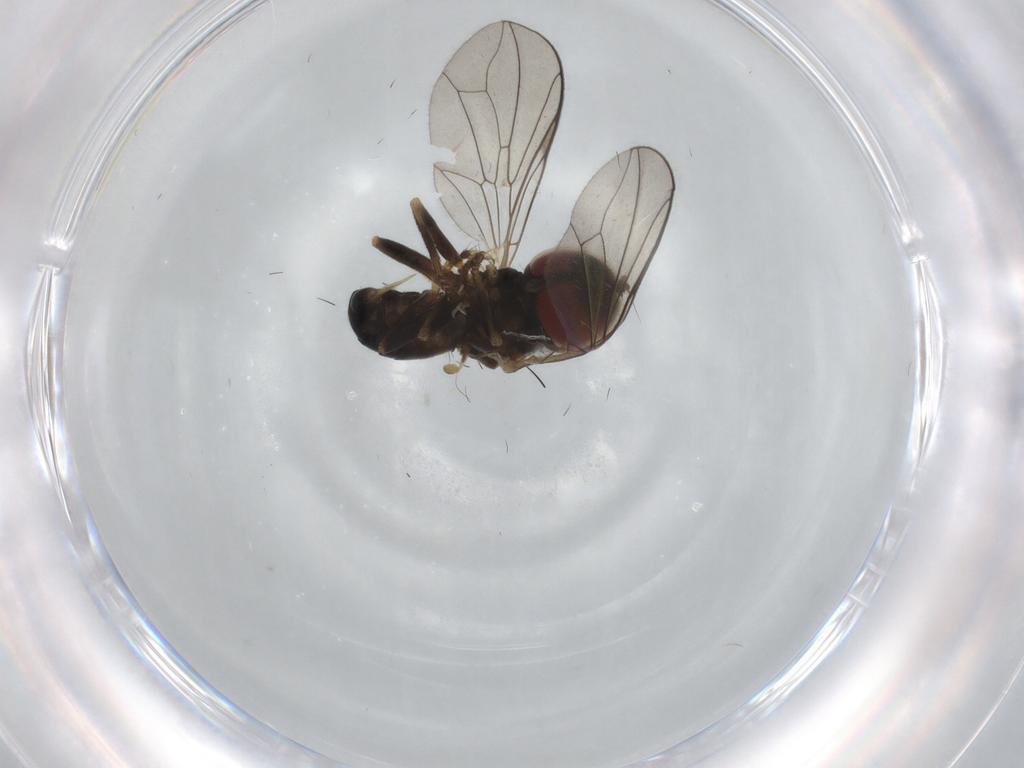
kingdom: Animalia
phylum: Arthropoda
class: Insecta
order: Diptera
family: Pipunculidae
